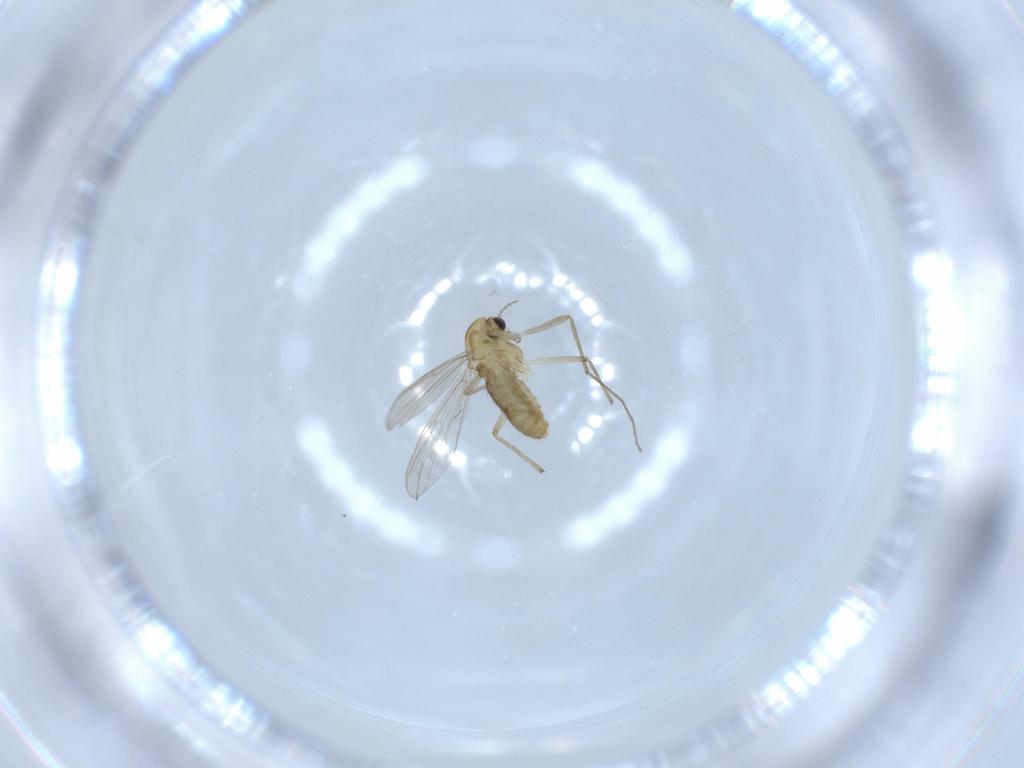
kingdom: Animalia
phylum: Arthropoda
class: Insecta
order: Diptera
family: Chironomidae
